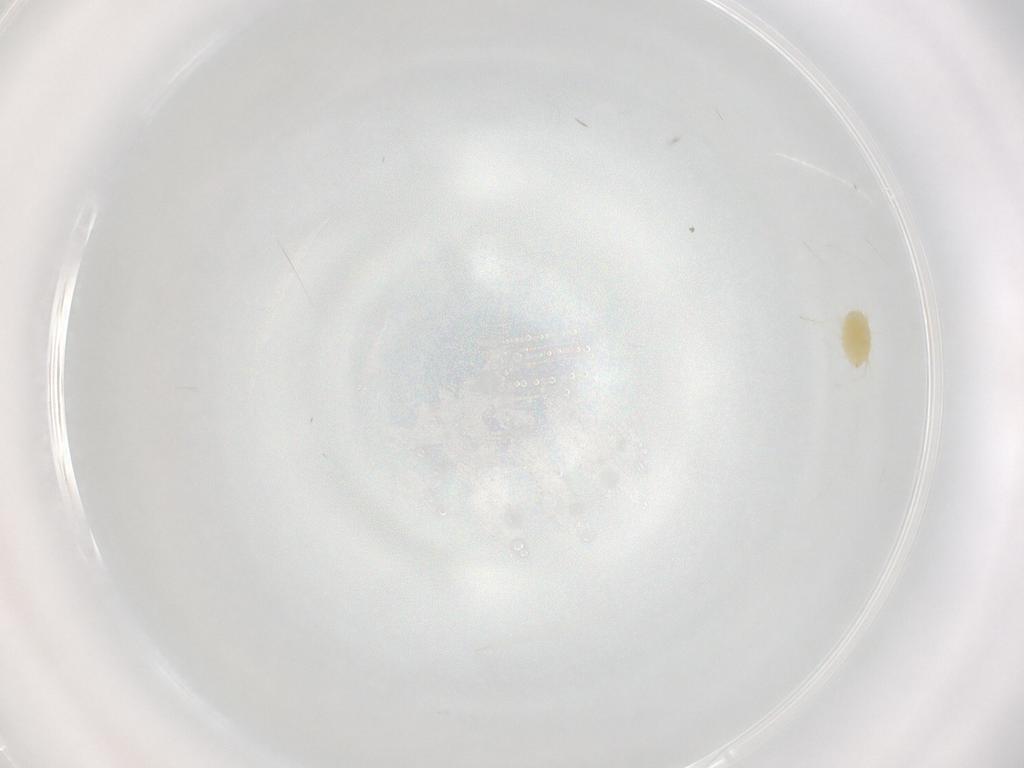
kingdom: Animalia
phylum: Arthropoda
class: Arachnida
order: Trombidiformes
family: Tetranychidae
